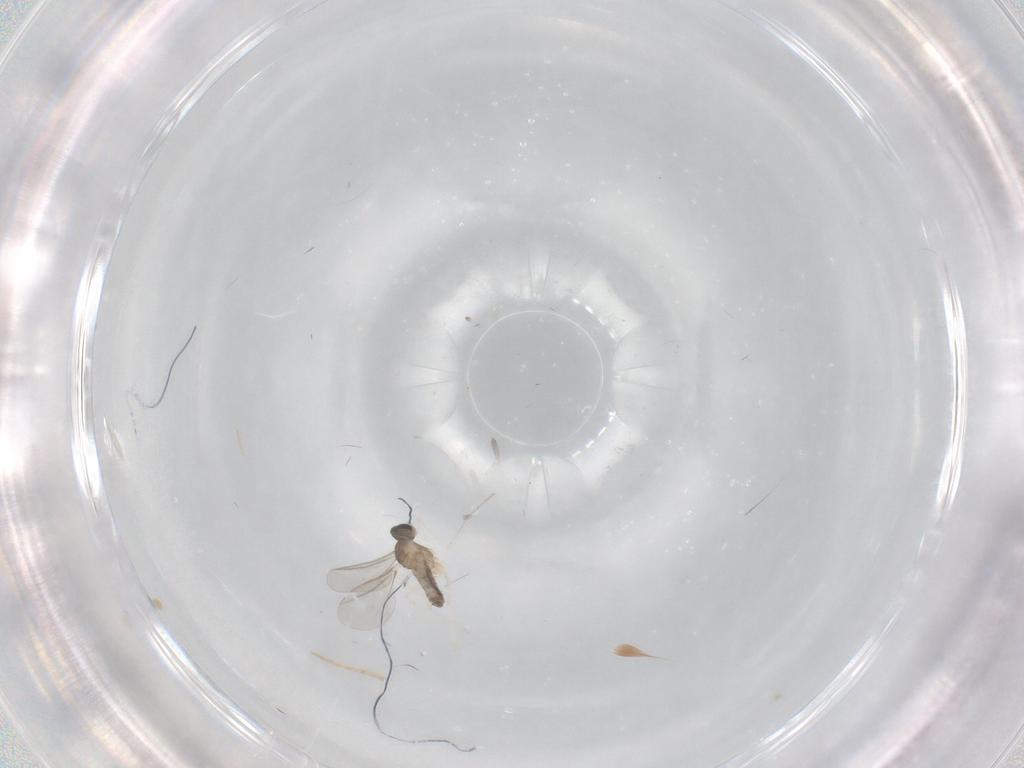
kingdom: Animalia
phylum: Arthropoda
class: Insecta
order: Diptera
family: Cecidomyiidae
